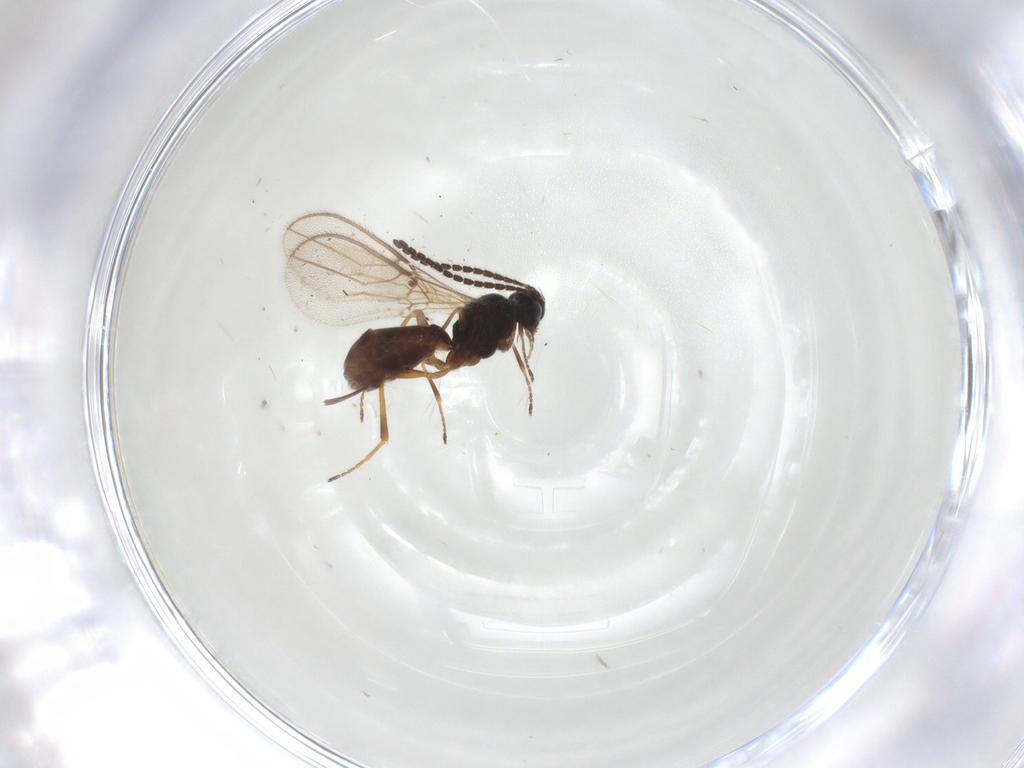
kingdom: Animalia
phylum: Arthropoda
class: Insecta
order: Hymenoptera
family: Braconidae
